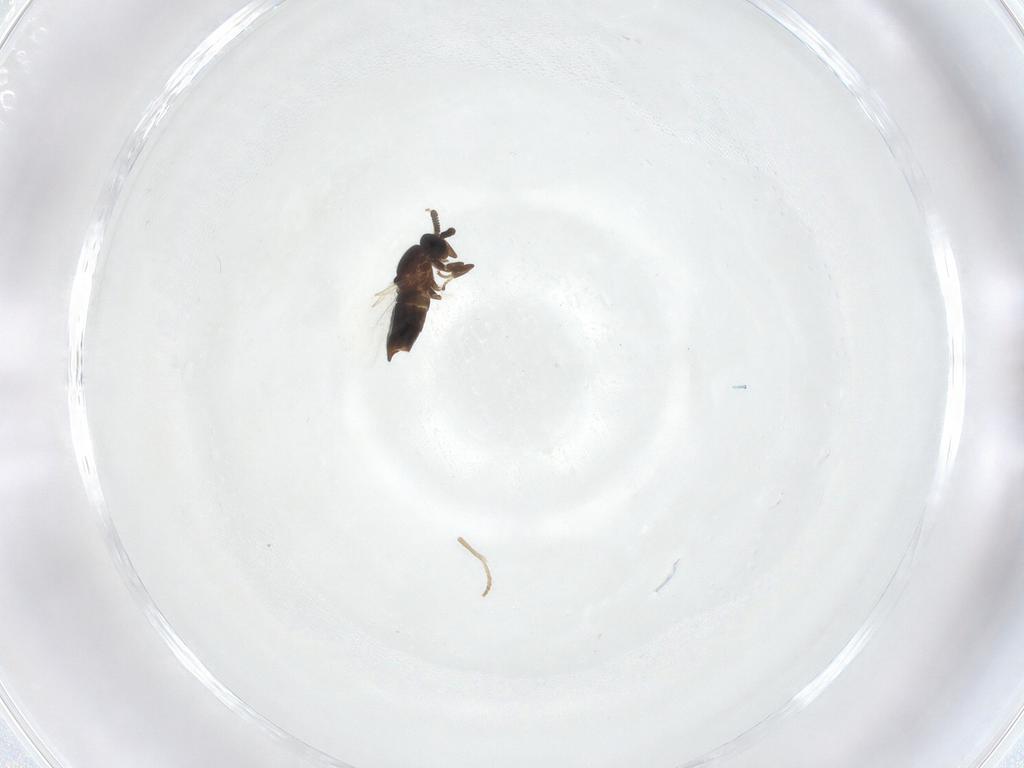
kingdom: Animalia
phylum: Arthropoda
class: Insecta
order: Diptera
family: Scatopsidae
